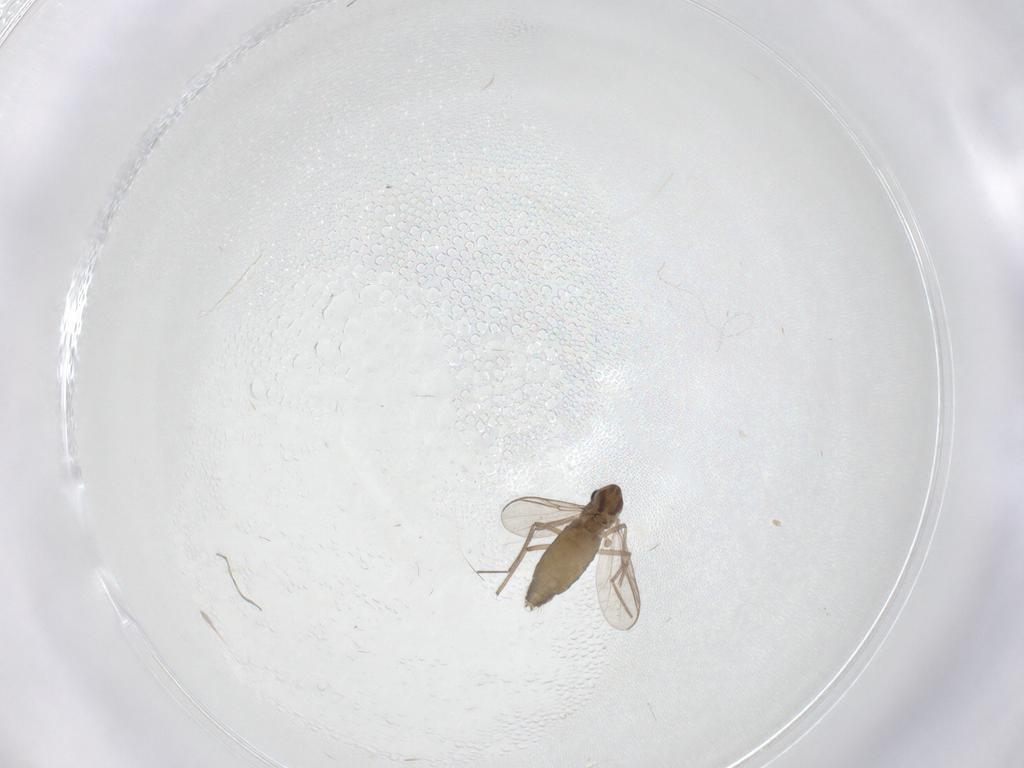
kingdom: Animalia
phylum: Arthropoda
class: Insecta
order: Diptera
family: Chironomidae
